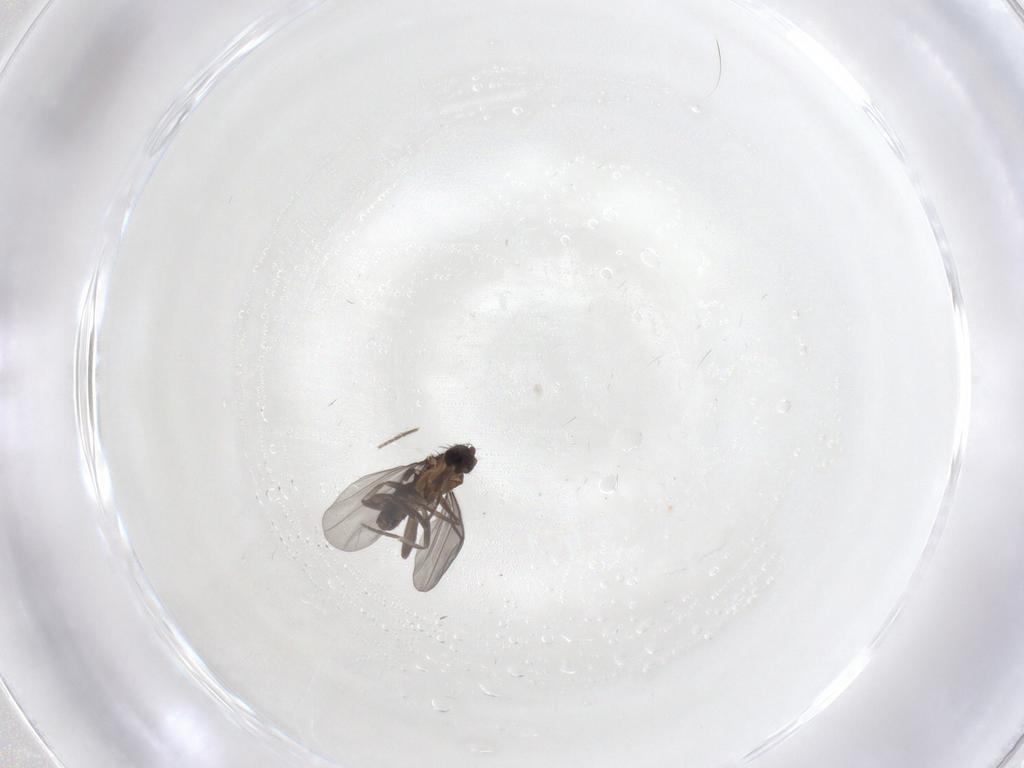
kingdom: Animalia
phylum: Arthropoda
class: Insecta
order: Diptera
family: Phoridae
